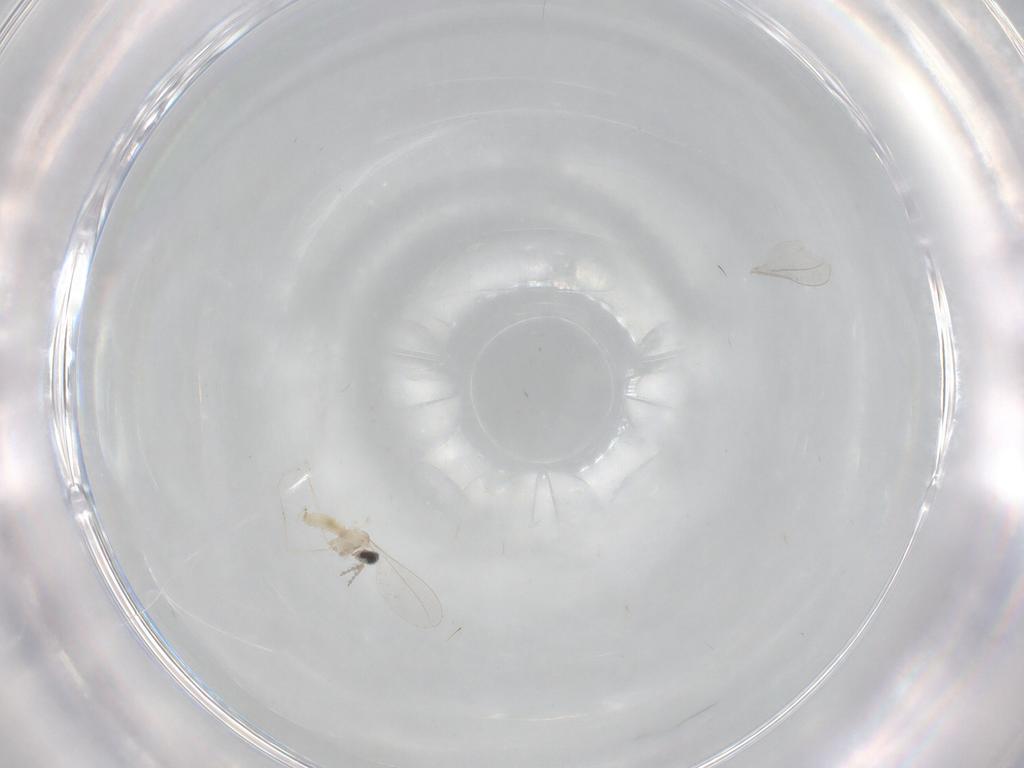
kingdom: Animalia
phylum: Arthropoda
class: Insecta
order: Diptera
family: Cecidomyiidae
